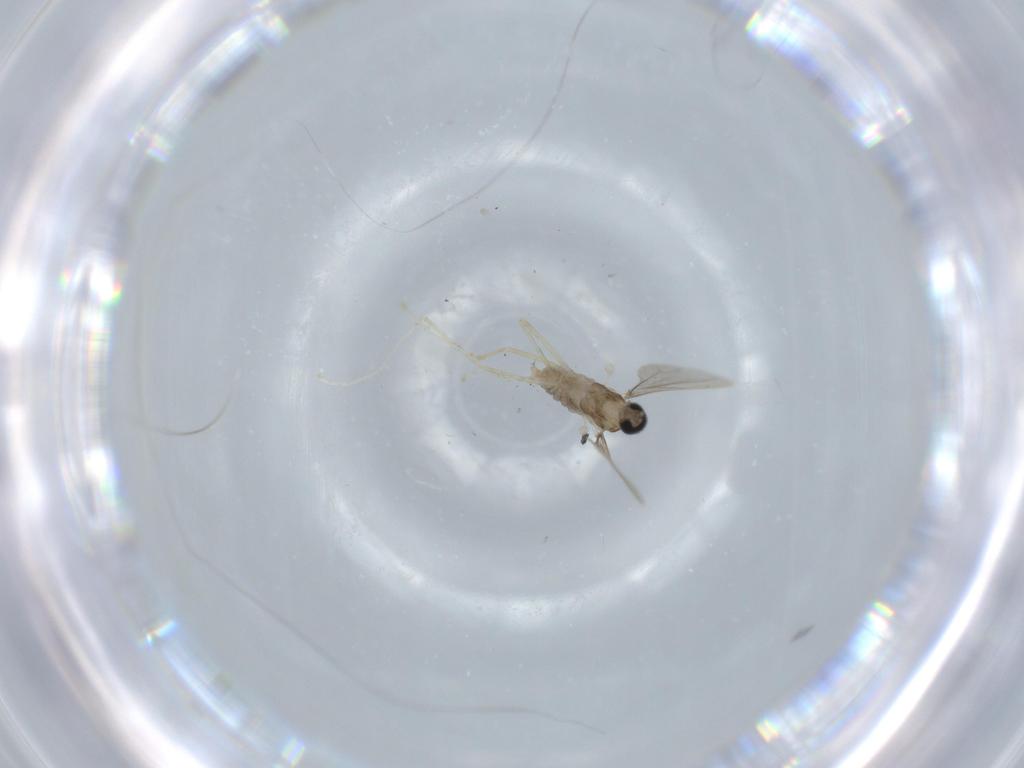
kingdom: Animalia
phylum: Arthropoda
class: Insecta
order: Diptera
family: Cecidomyiidae
